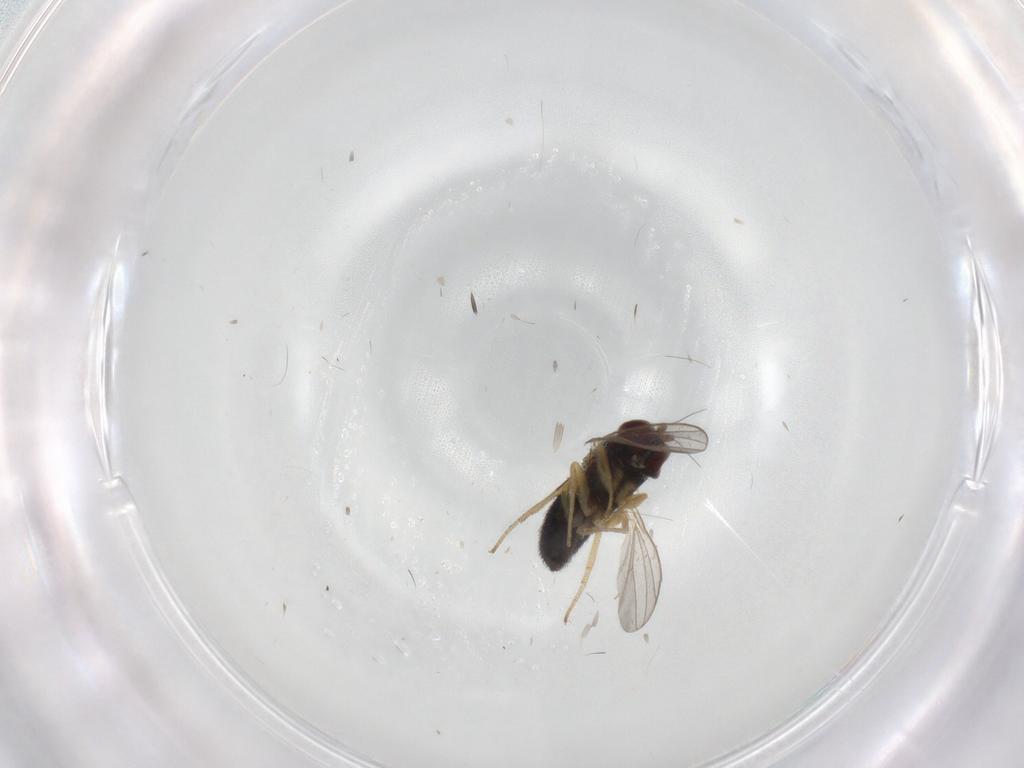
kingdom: Animalia
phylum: Arthropoda
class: Insecta
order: Diptera
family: Dolichopodidae
